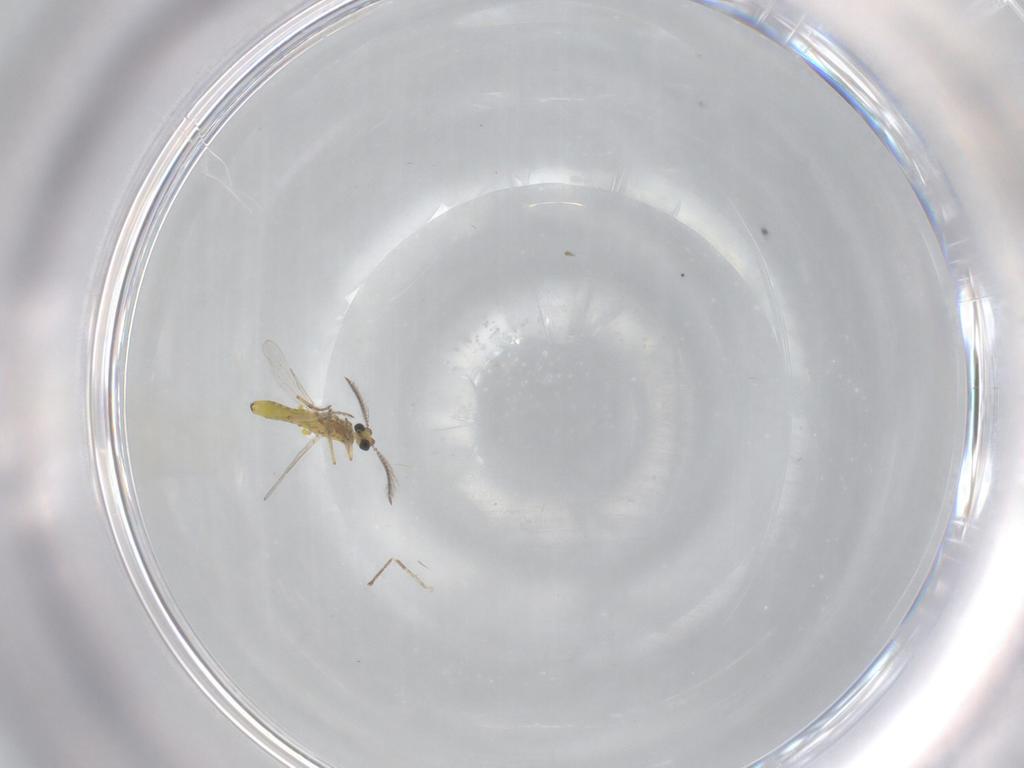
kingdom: Animalia
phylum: Arthropoda
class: Insecta
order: Diptera
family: Ceratopogonidae
